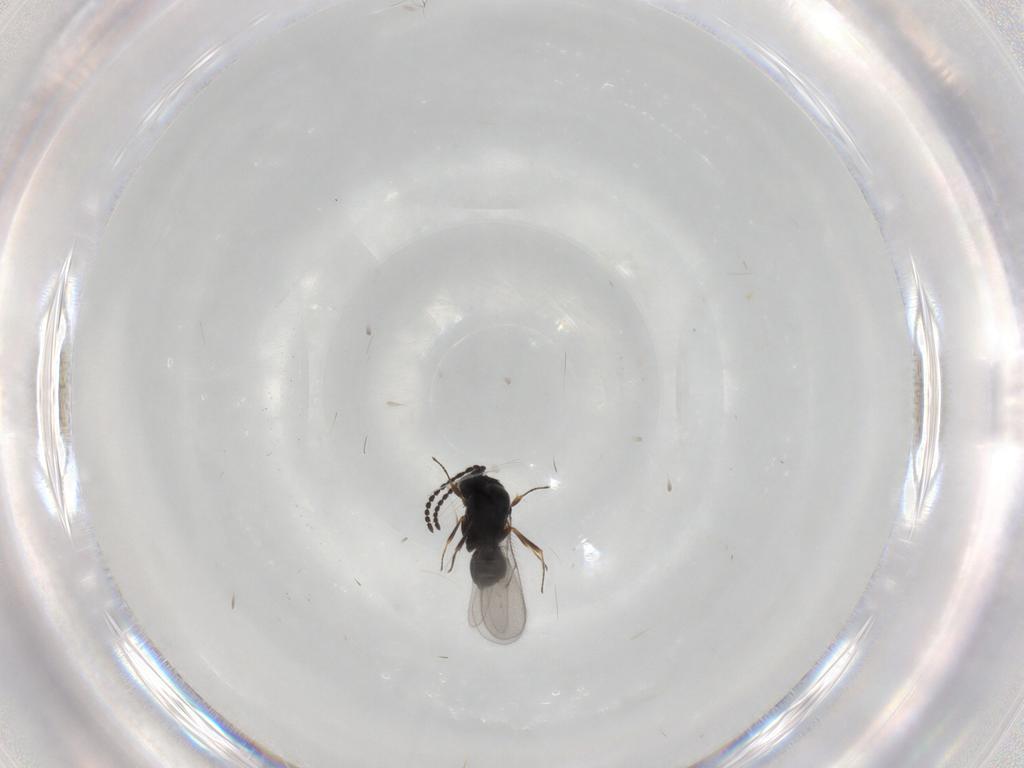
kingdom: Animalia
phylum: Arthropoda
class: Insecta
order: Hymenoptera
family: Scelionidae
